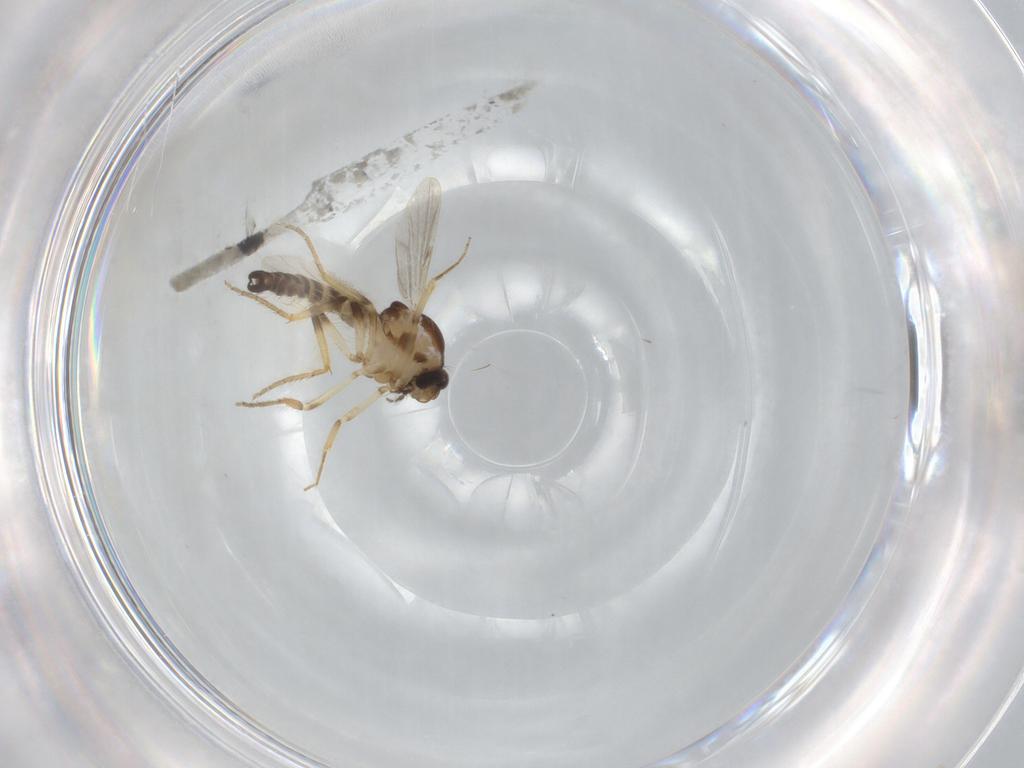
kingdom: Animalia
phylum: Arthropoda
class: Insecta
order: Diptera
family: Ceratopogonidae
